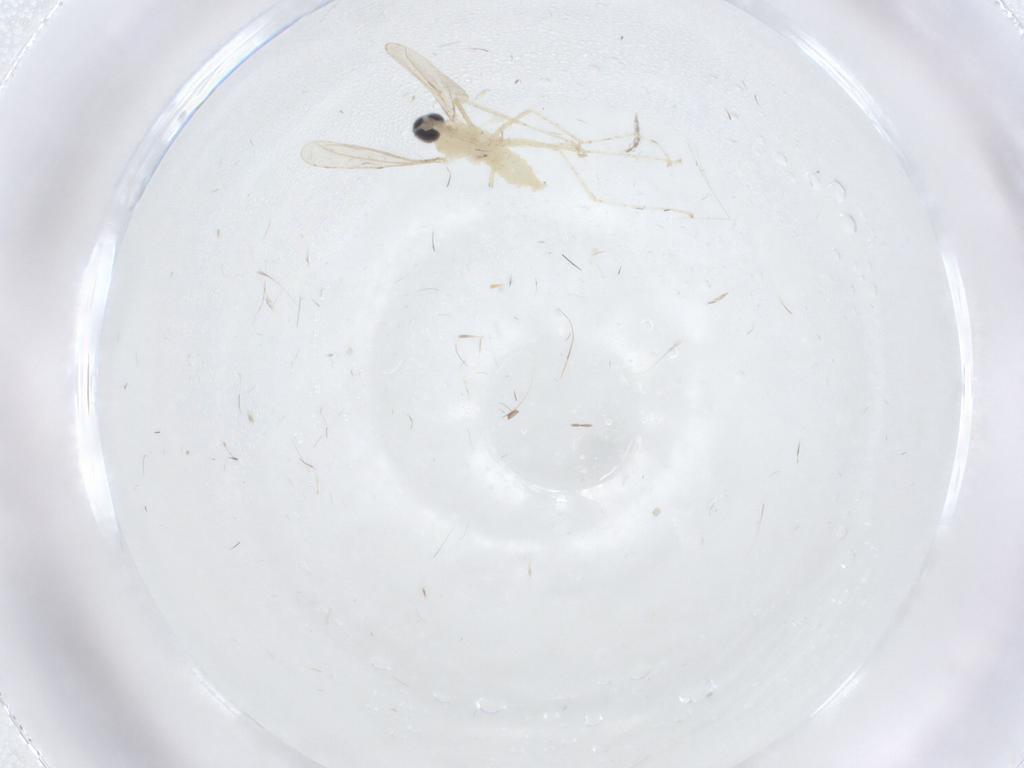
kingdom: Animalia
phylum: Arthropoda
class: Insecta
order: Diptera
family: Cecidomyiidae
